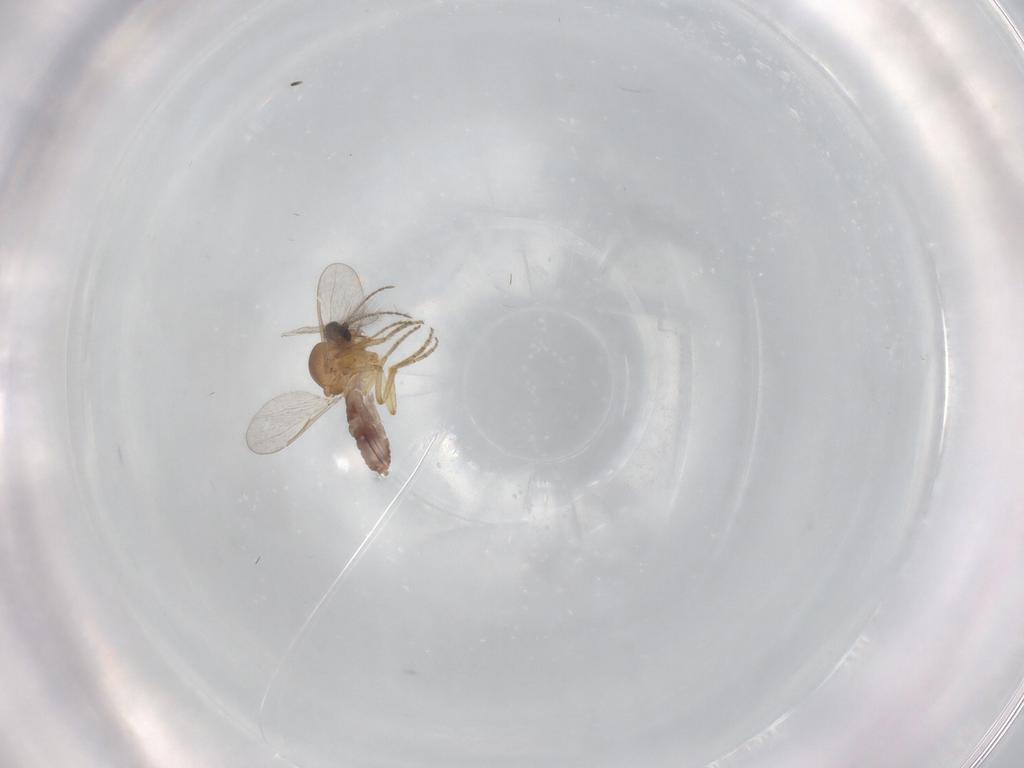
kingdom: Animalia
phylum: Arthropoda
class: Insecta
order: Diptera
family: Ceratopogonidae
